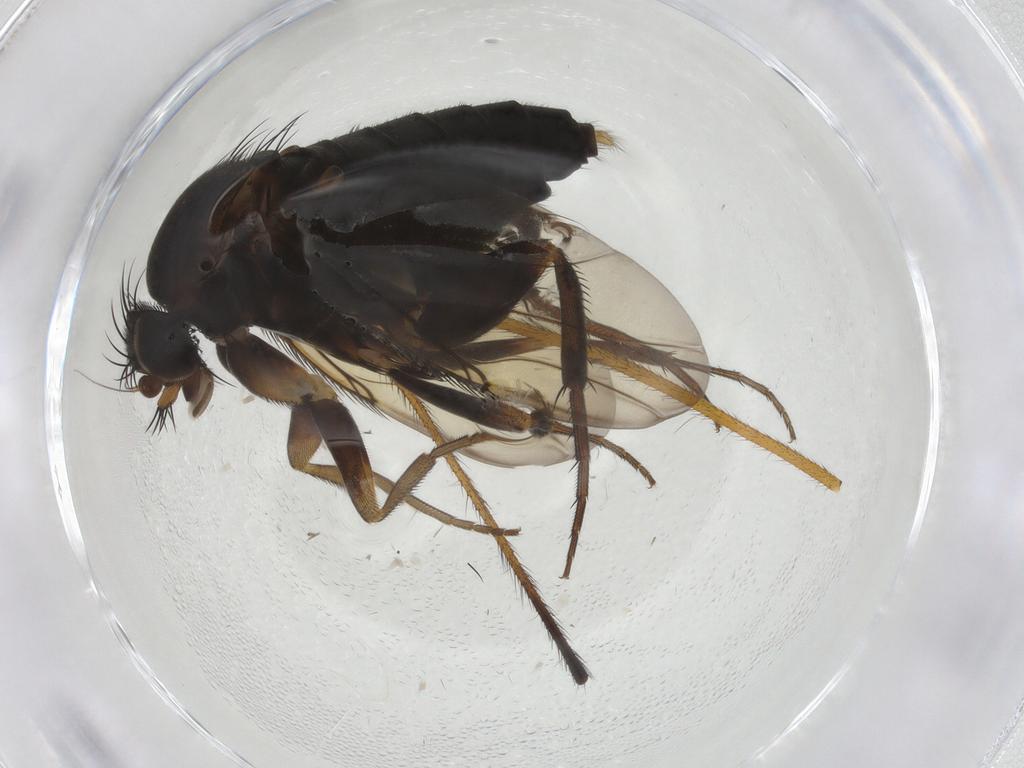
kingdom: Animalia
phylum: Arthropoda
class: Insecta
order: Diptera
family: Phoridae
